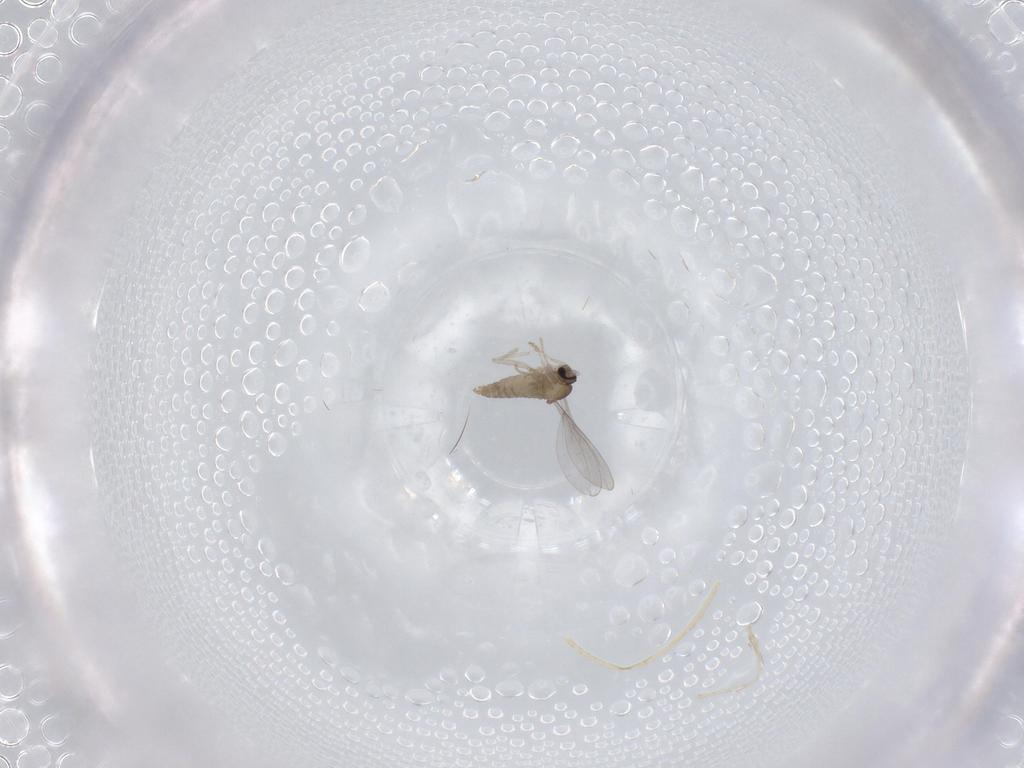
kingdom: Animalia
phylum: Arthropoda
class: Insecta
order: Diptera
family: Cecidomyiidae
